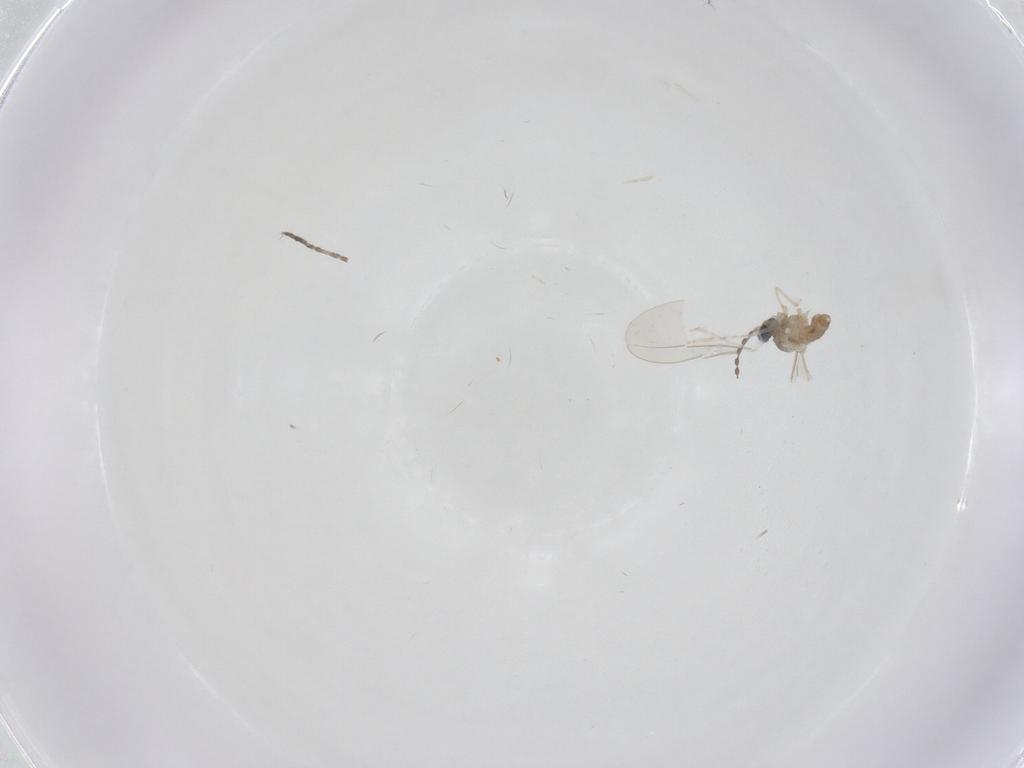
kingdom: Animalia
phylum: Arthropoda
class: Insecta
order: Diptera
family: Cecidomyiidae
